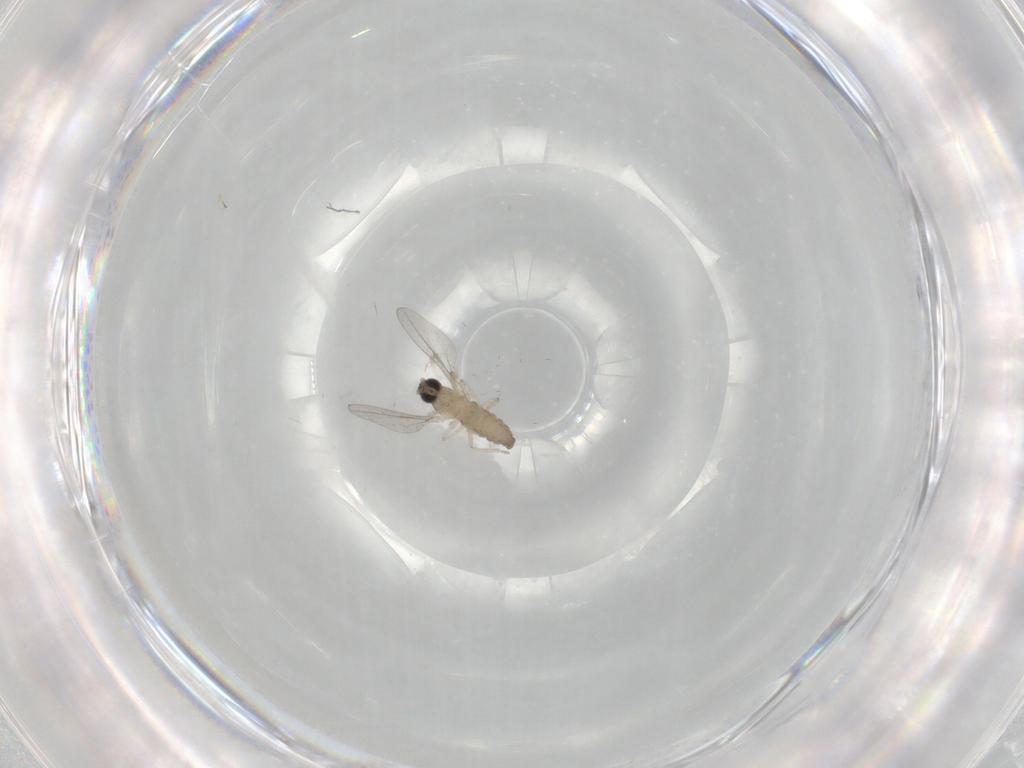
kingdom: Animalia
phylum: Arthropoda
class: Insecta
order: Diptera
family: Cecidomyiidae
